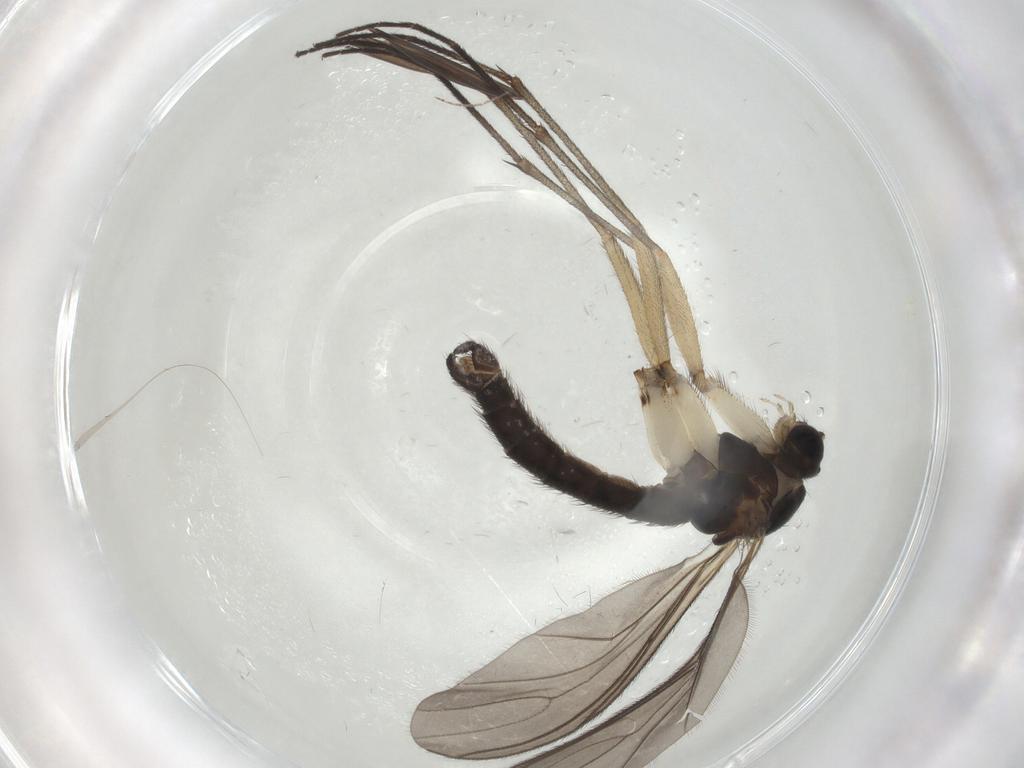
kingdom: Animalia
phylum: Arthropoda
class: Insecta
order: Diptera
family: Sciaridae
